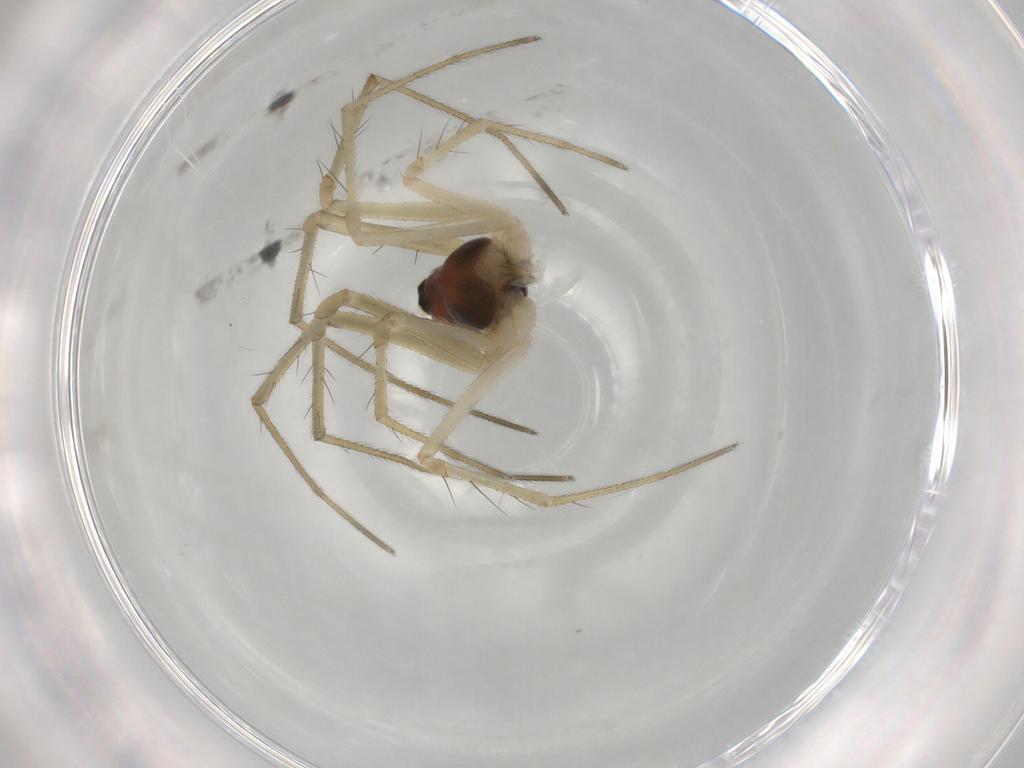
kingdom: Animalia
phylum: Arthropoda
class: Arachnida
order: Araneae
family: Linyphiidae
